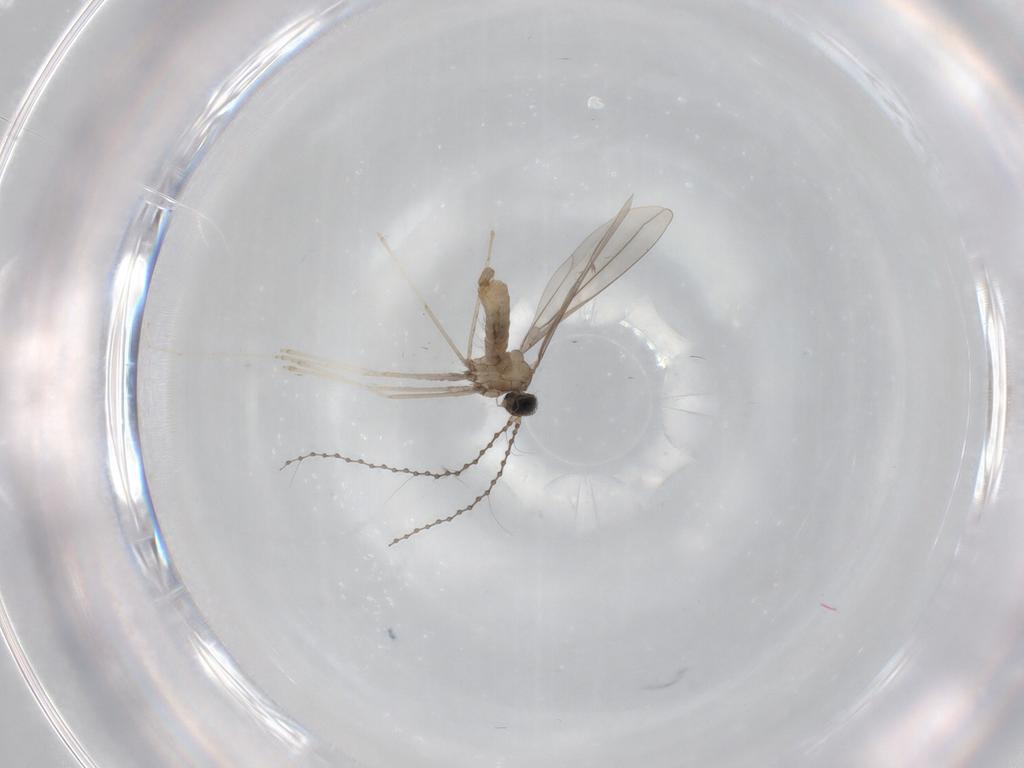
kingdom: Animalia
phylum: Arthropoda
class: Insecta
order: Diptera
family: Cecidomyiidae
